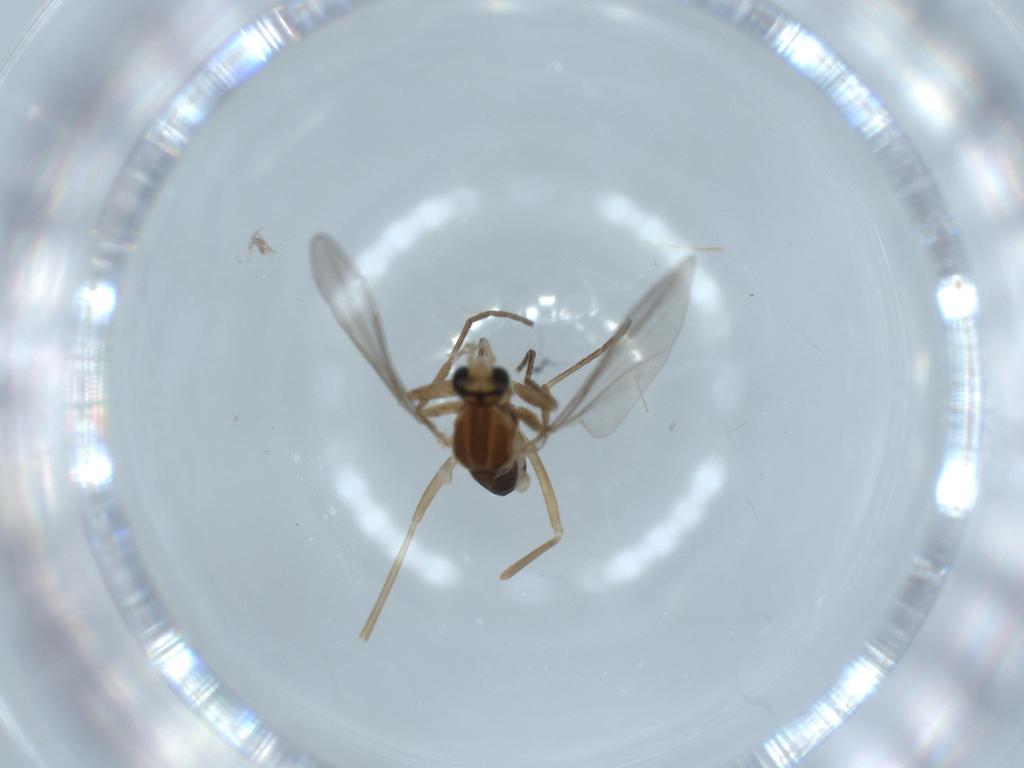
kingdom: Animalia
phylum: Arthropoda
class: Insecta
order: Diptera
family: Cecidomyiidae
